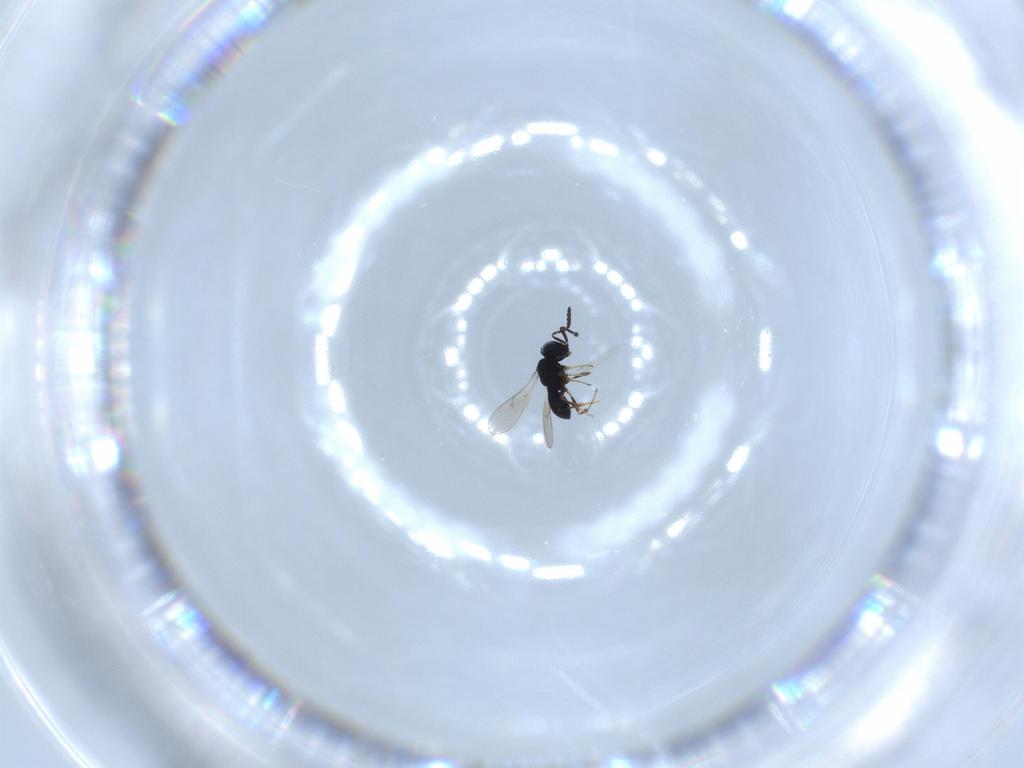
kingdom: Animalia
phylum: Arthropoda
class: Insecta
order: Hymenoptera
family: Scelionidae
